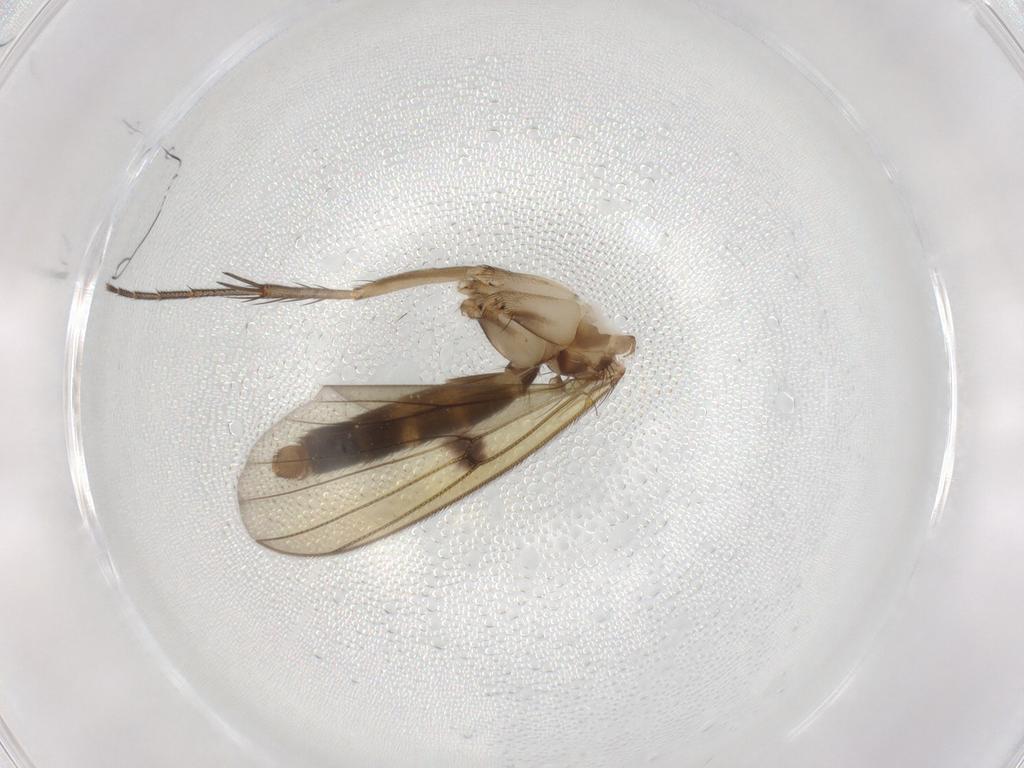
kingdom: Animalia
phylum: Arthropoda
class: Insecta
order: Diptera
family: Mycetophilidae
